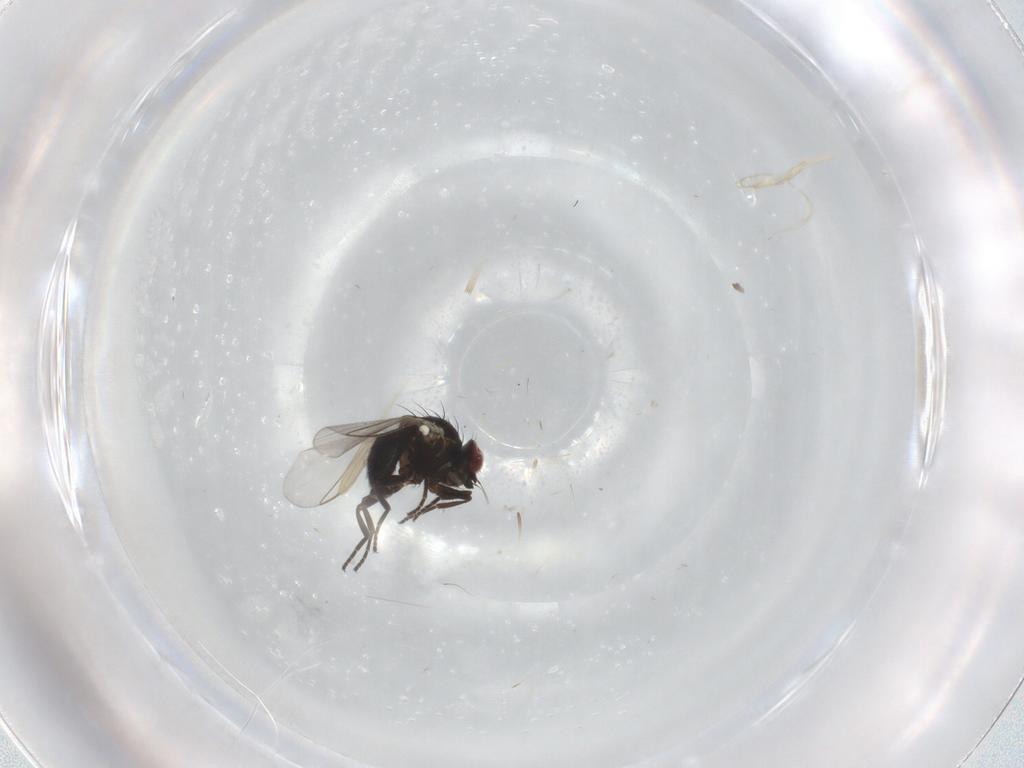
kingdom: Animalia
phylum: Arthropoda
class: Insecta
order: Diptera
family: Agromyzidae
